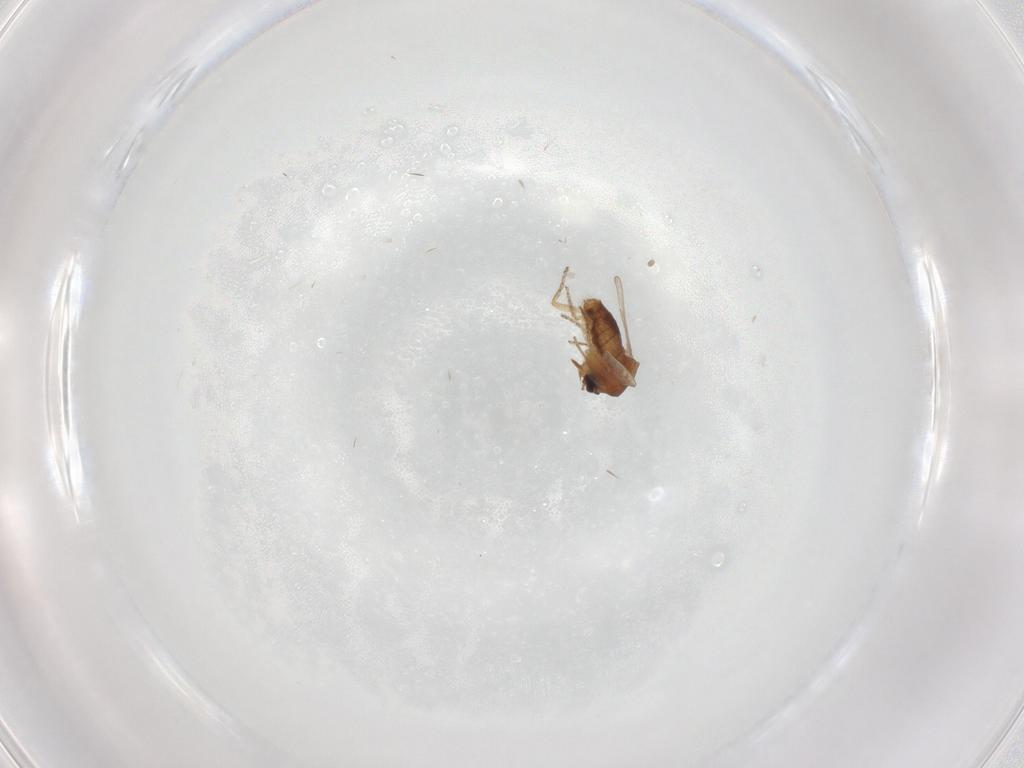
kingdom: Animalia
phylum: Arthropoda
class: Insecta
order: Diptera
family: Ceratopogonidae
